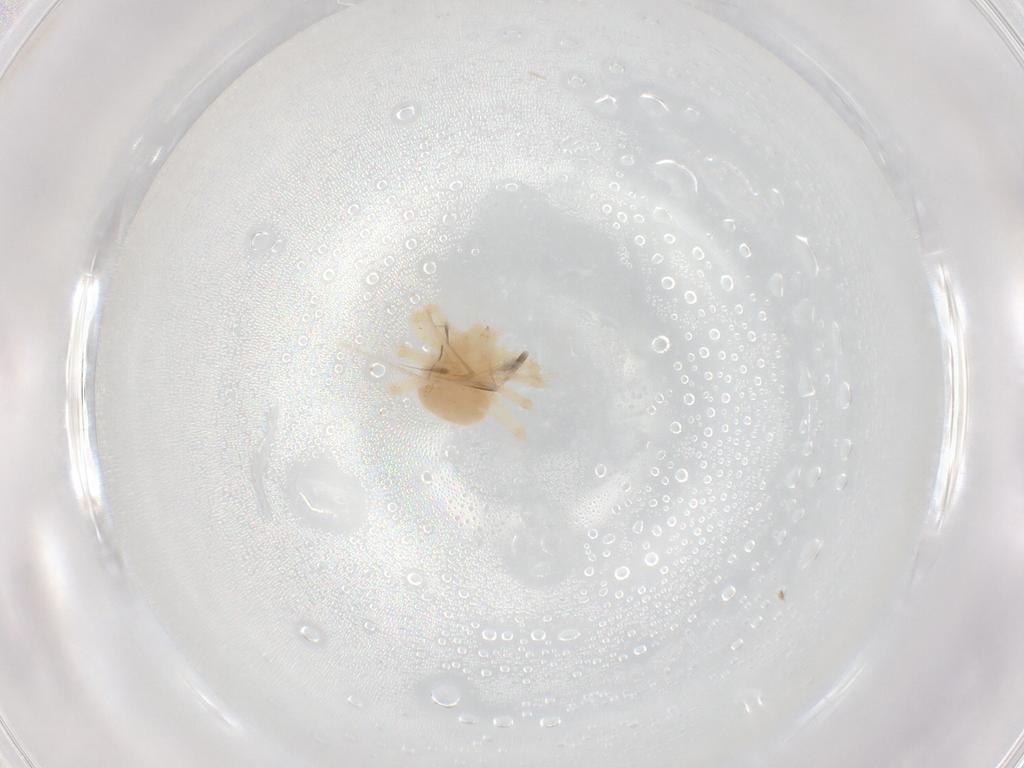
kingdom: Animalia
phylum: Arthropoda
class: Arachnida
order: Trombidiformes
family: Anystidae
